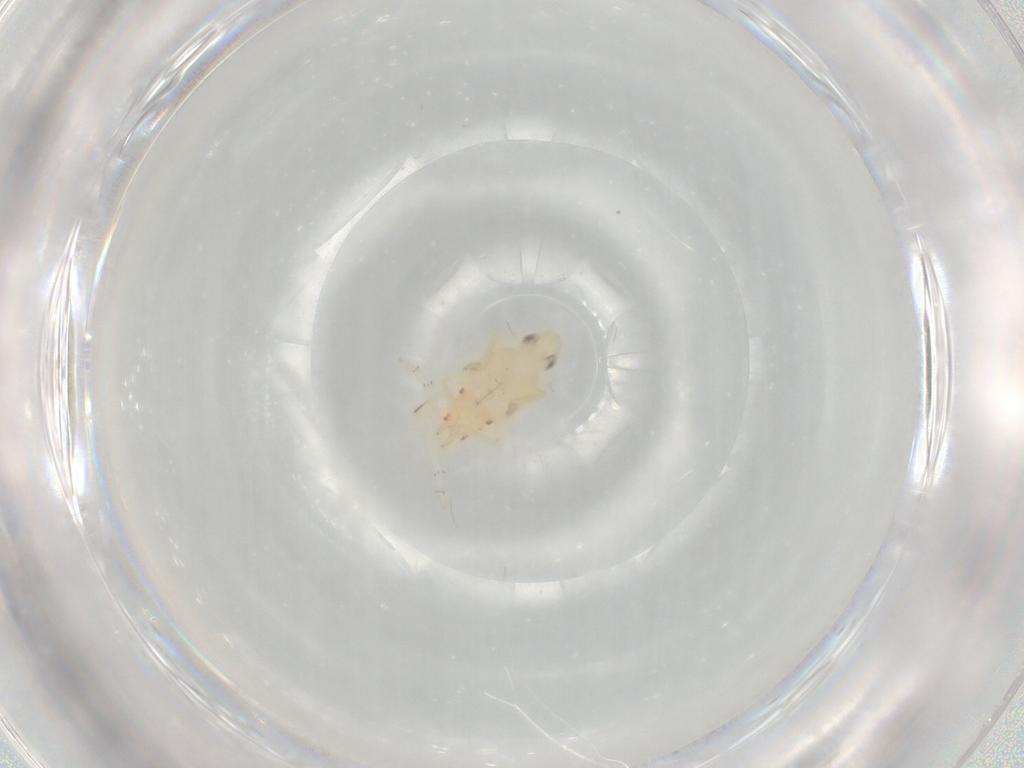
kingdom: Animalia
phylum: Arthropoda
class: Insecta
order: Hemiptera
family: Tropiduchidae
